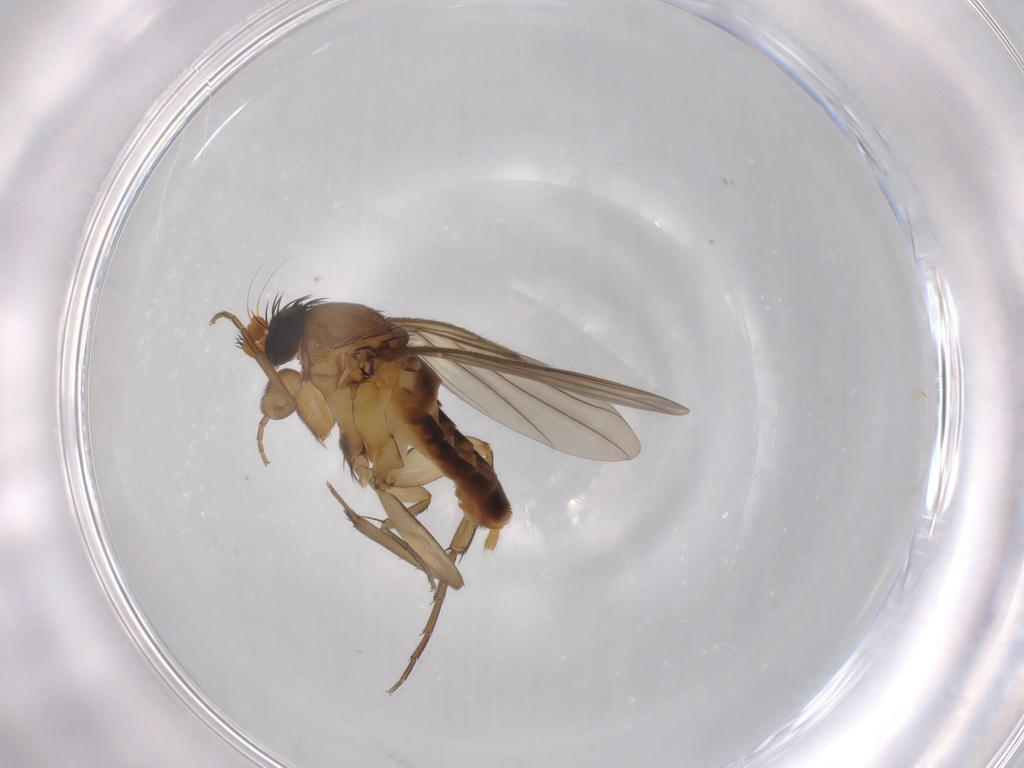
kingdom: Animalia
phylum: Arthropoda
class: Insecta
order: Diptera
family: Phoridae
